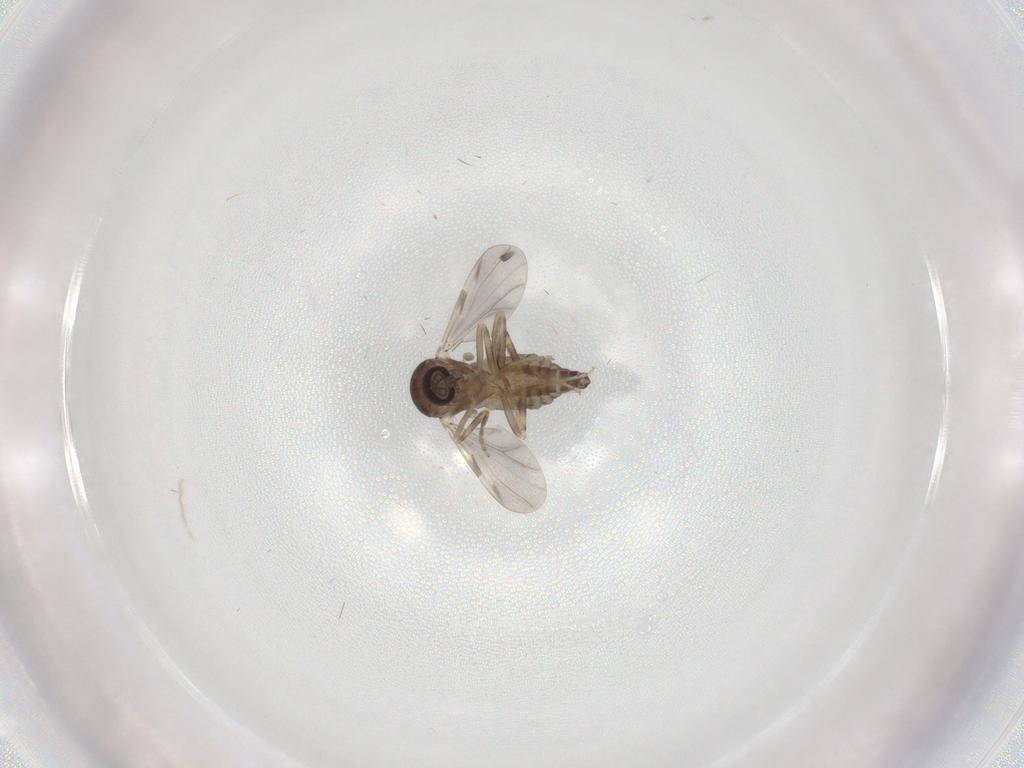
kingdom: Animalia
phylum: Arthropoda
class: Insecta
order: Diptera
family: Ceratopogonidae
